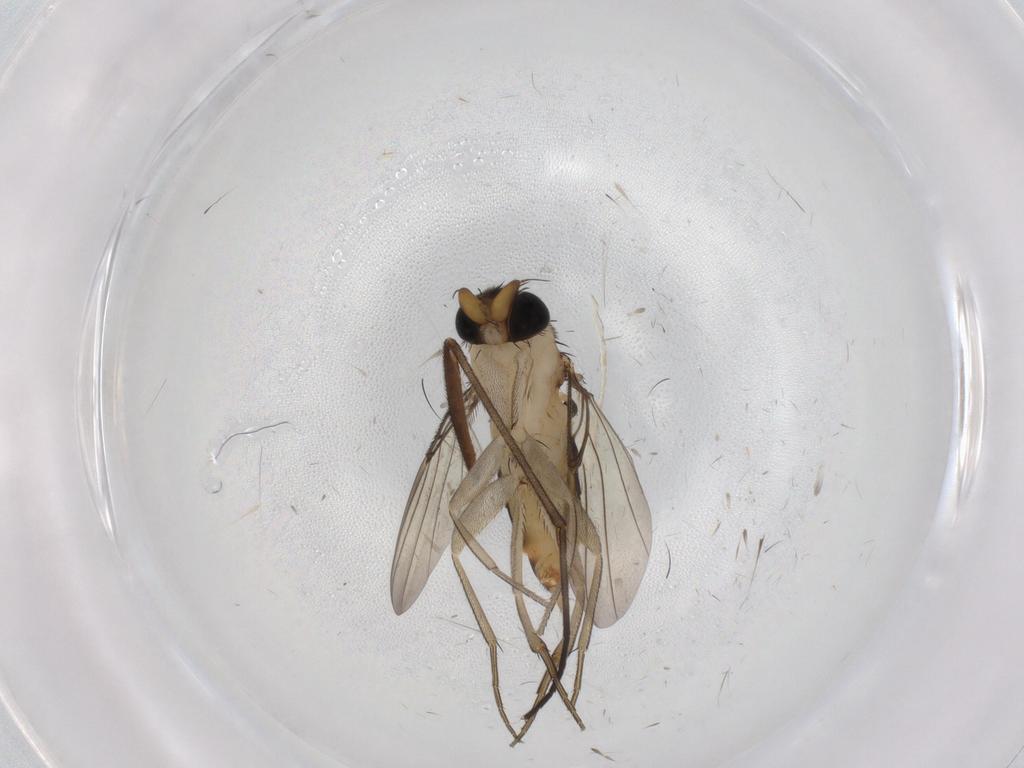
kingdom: Animalia
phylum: Arthropoda
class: Insecta
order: Diptera
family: Phoridae
